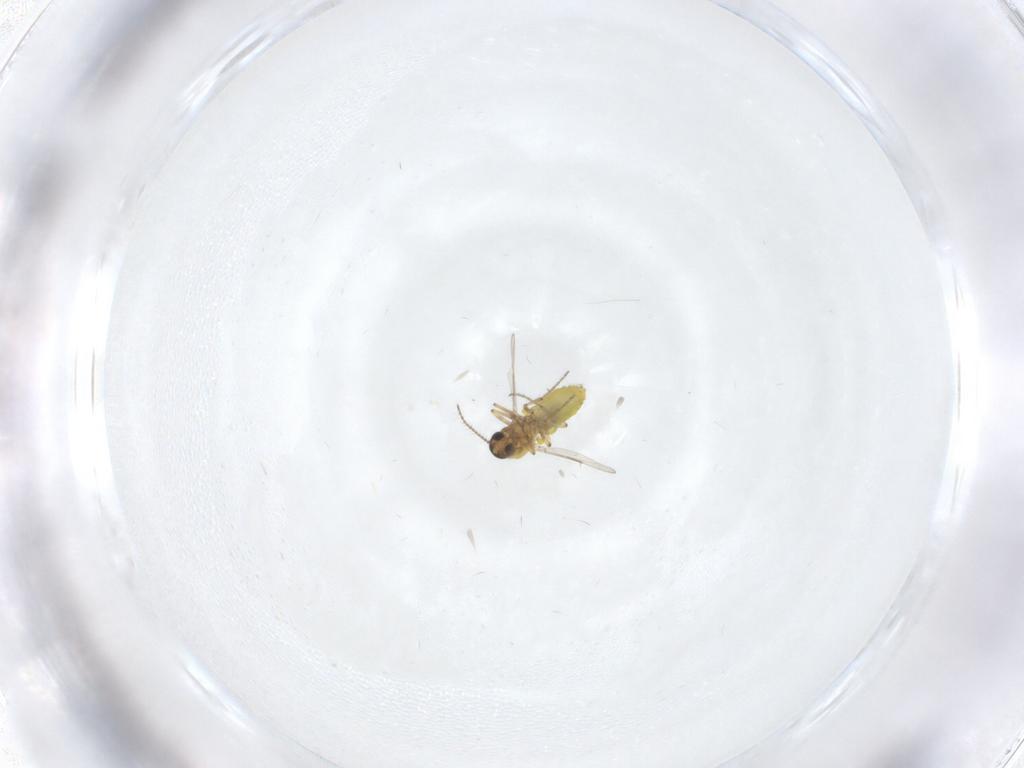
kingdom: Animalia
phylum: Arthropoda
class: Insecta
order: Diptera
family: Ceratopogonidae
